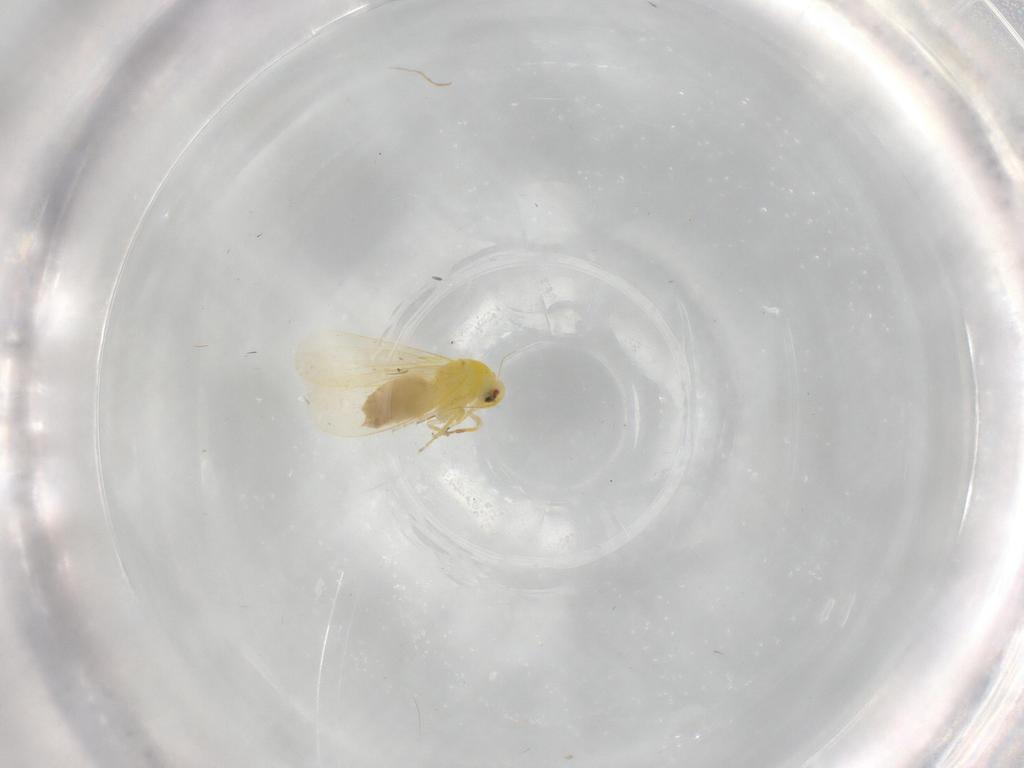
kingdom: Animalia
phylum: Arthropoda
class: Insecta
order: Hemiptera
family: Aleyrodidae
